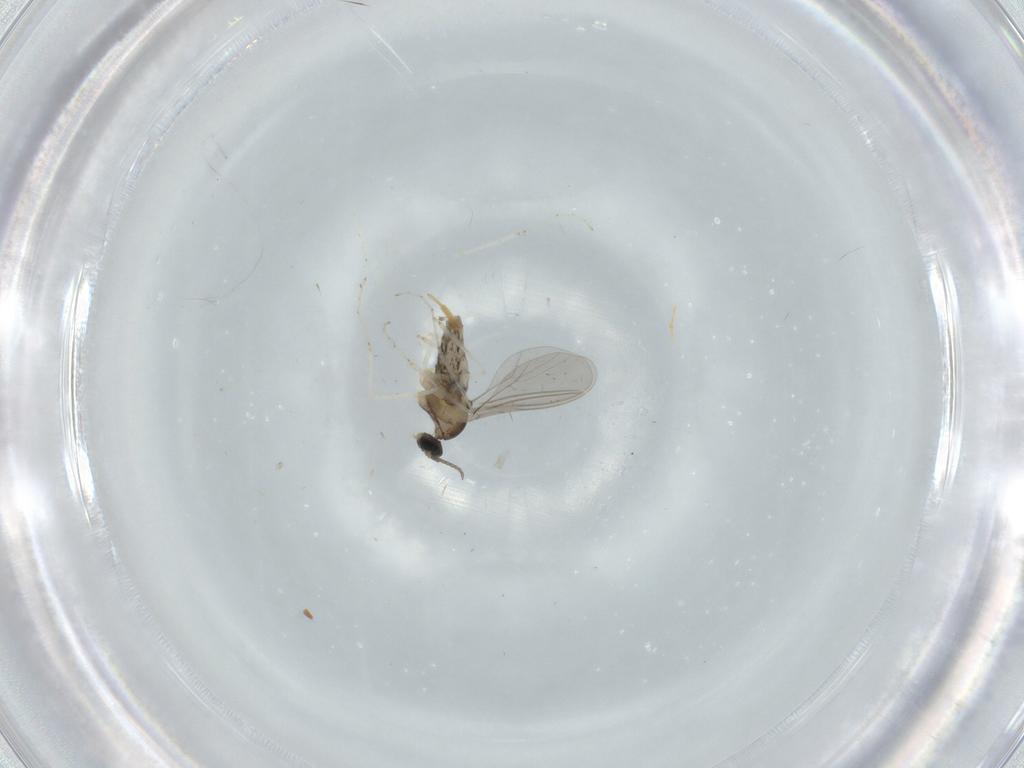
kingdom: Animalia
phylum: Arthropoda
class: Insecta
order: Diptera
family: Cecidomyiidae
